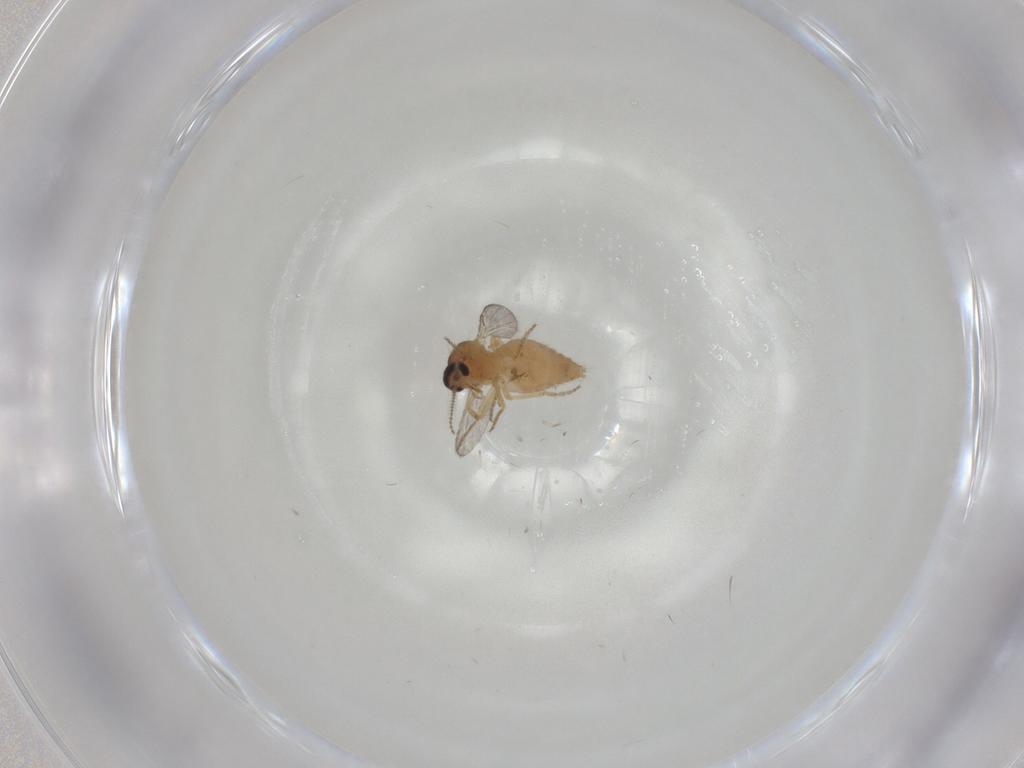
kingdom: Animalia
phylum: Arthropoda
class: Insecta
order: Diptera
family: Ceratopogonidae
